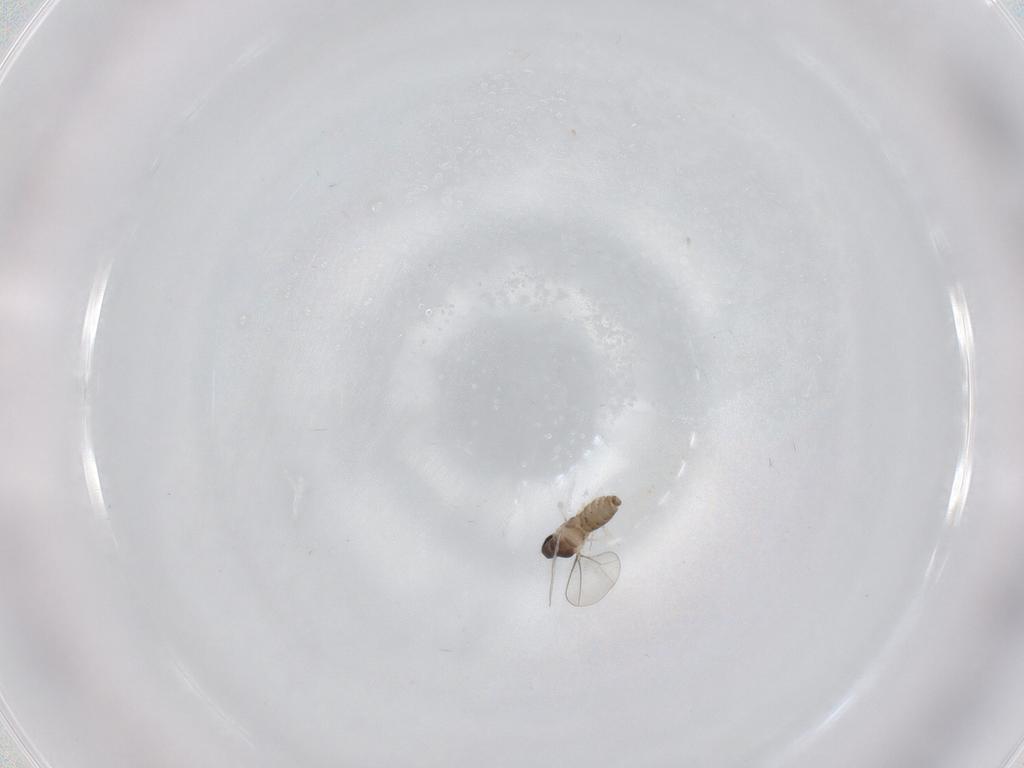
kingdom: Animalia
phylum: Arthropoda
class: Insecta
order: Diptera
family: Cecidomyiidae
